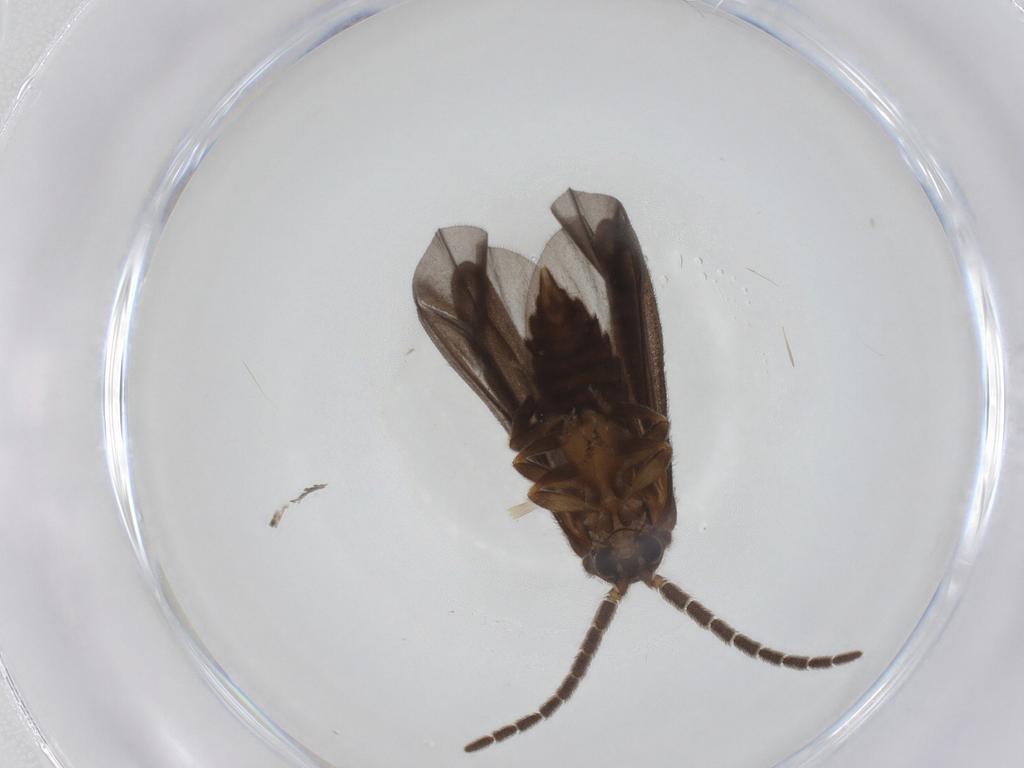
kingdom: Animalia
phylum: Arthropoda
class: Insecta
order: Coleoptera
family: Lycidae
